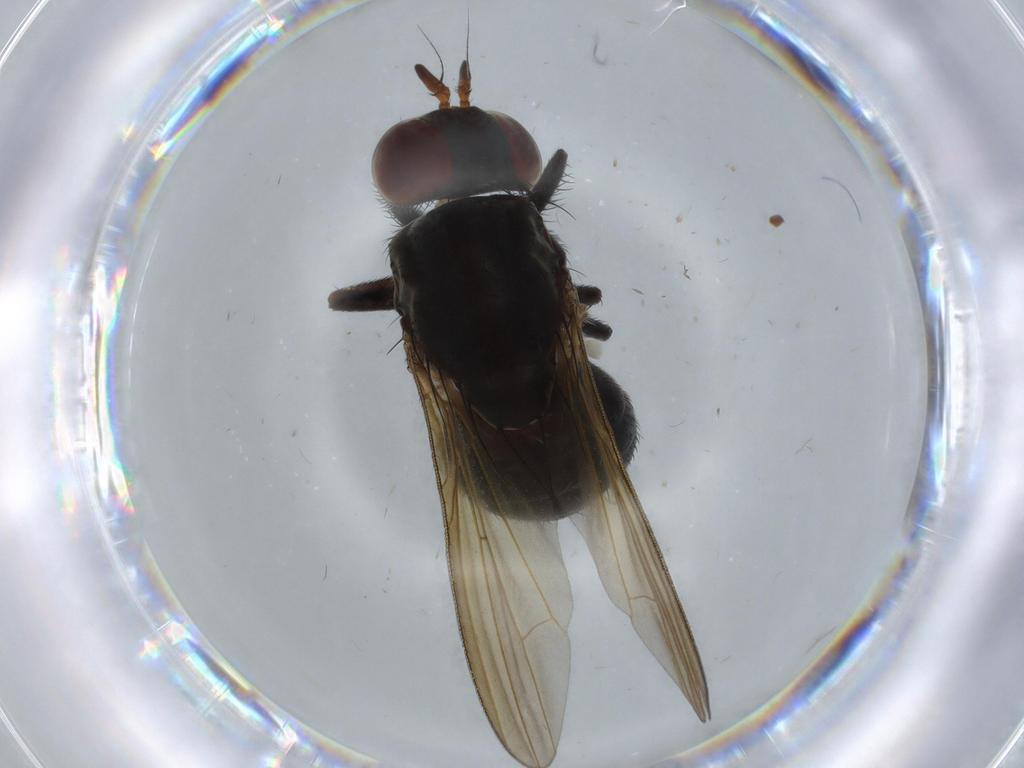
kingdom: Animalia
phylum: Arthropoda
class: Insecta
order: Diptera
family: Lauxaniidae
